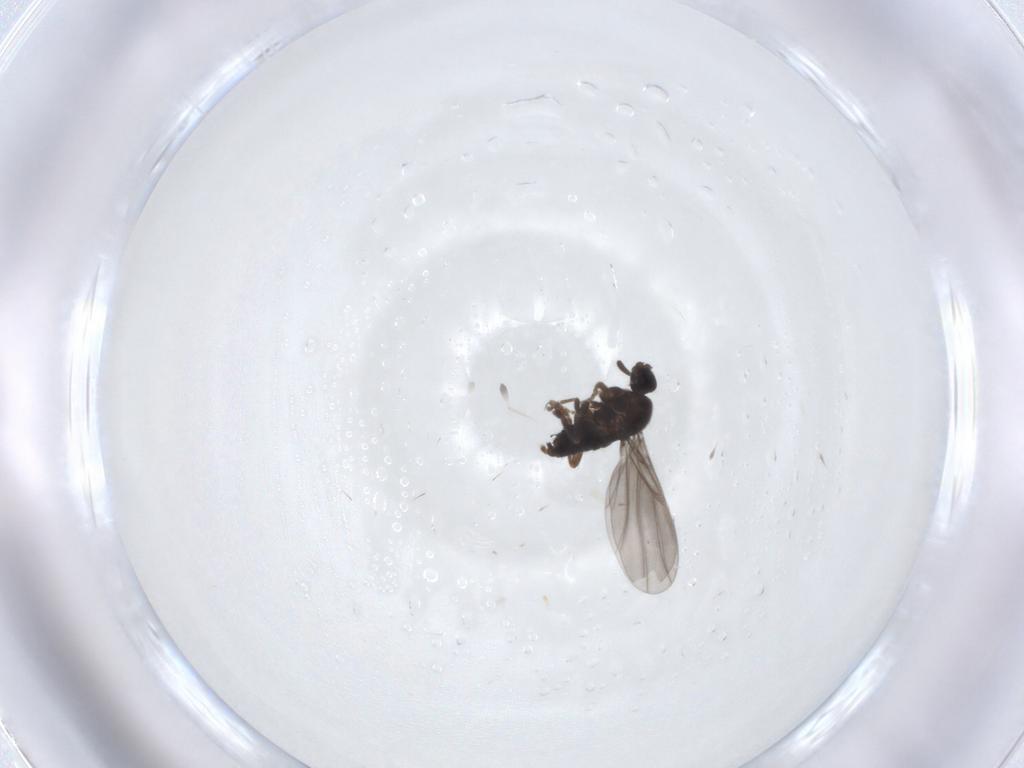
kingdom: Animalia
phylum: Arthropoda
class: Insecta
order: Diptera
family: Phoridae
